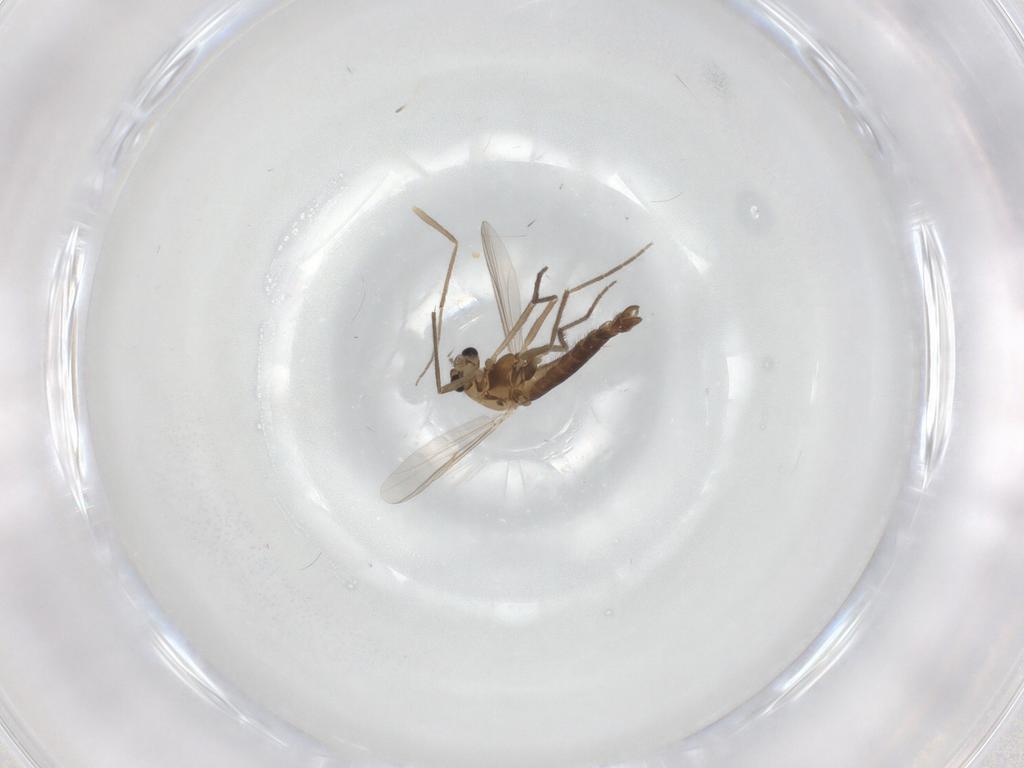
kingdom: Animalia
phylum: Arthropoda
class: Insecta
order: Diptera
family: Chironomidae
